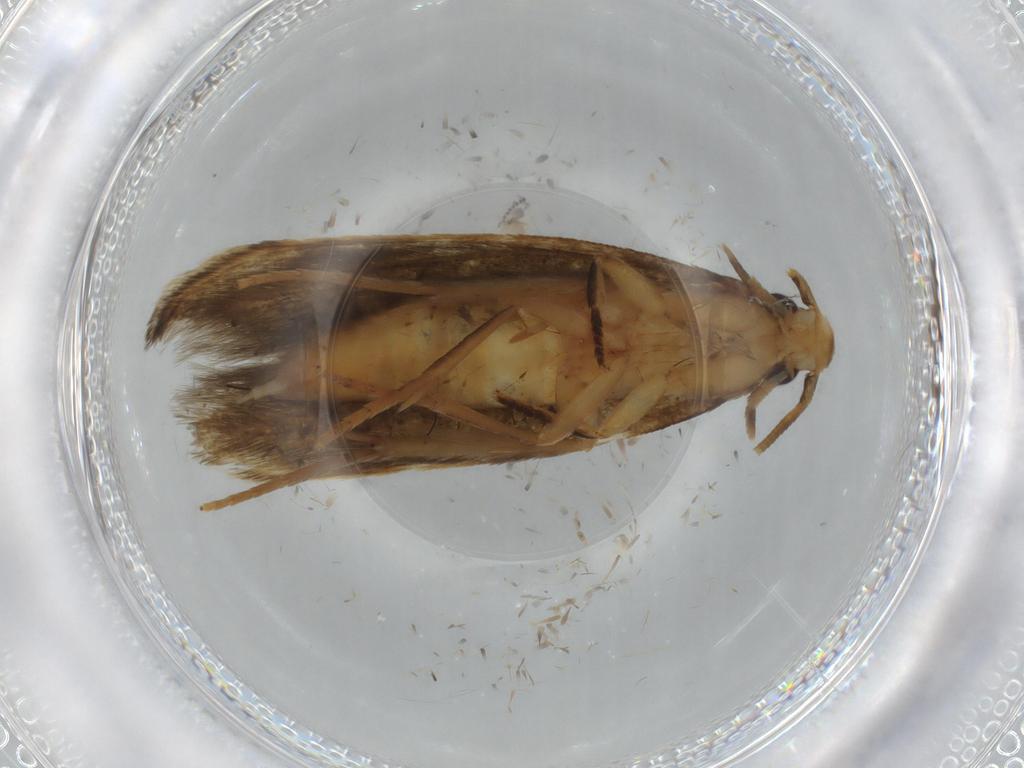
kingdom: Animalia
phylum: Arthropoda
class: Insecta
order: Lepidoptera
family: Tineidae
